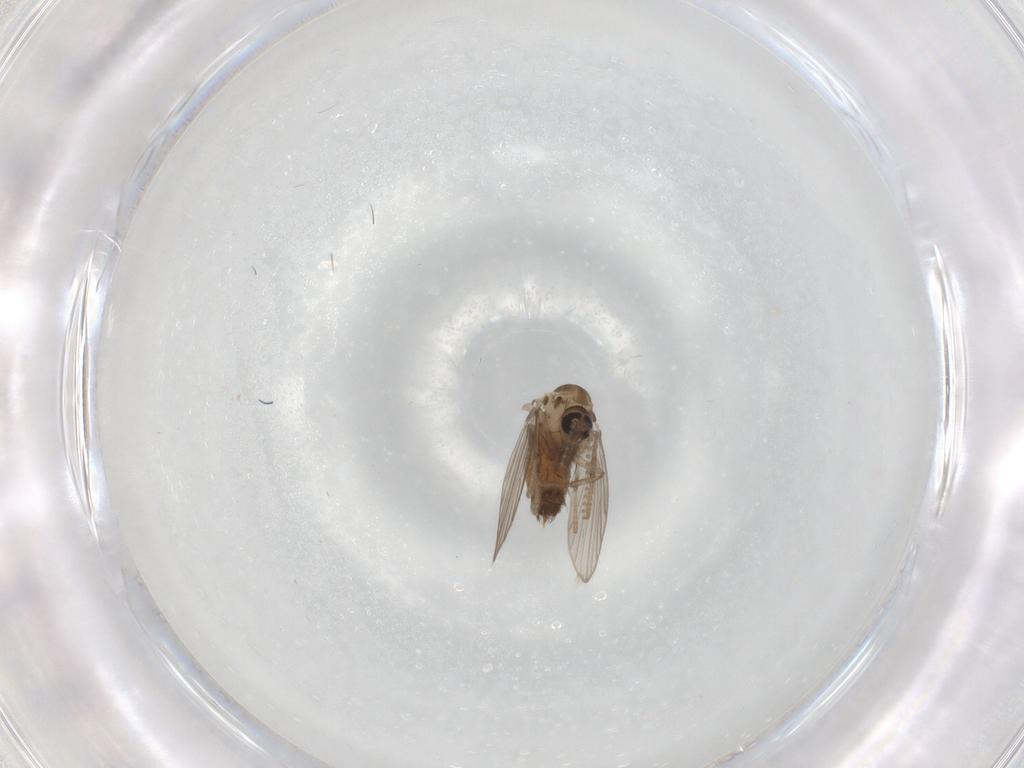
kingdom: Animalia
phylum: Arthropoda
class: Insecta
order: Diptera
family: Psychodidae
